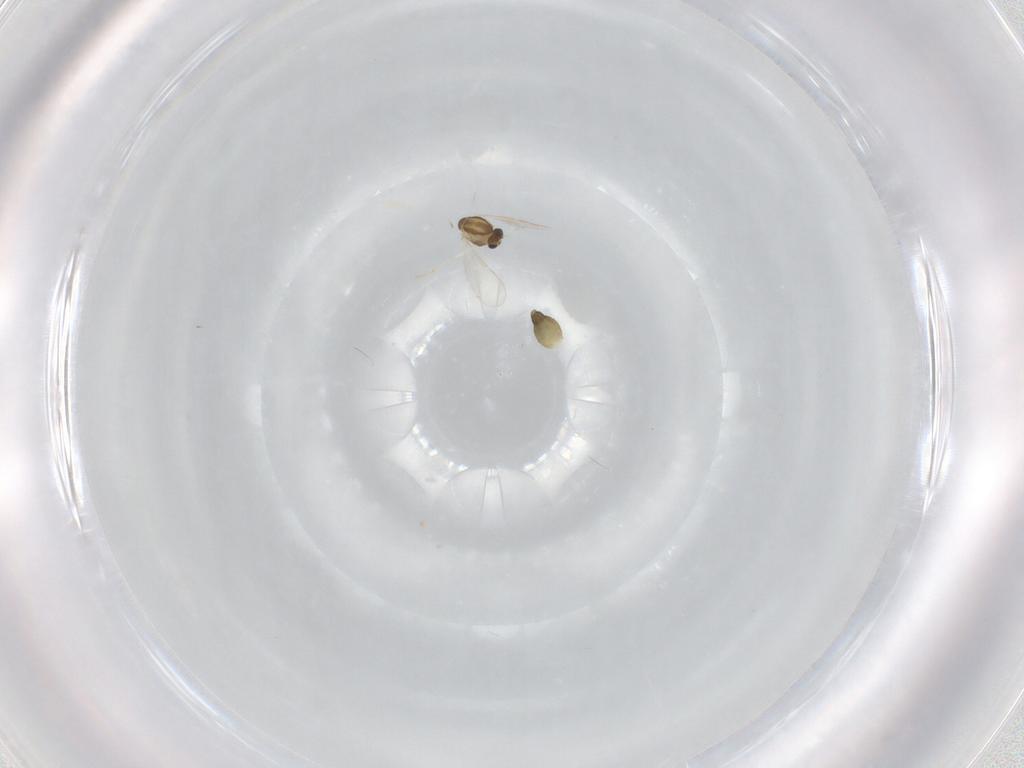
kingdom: Animalia
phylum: Arthropoda
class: Insecta
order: Diptera
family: Chironomidae
